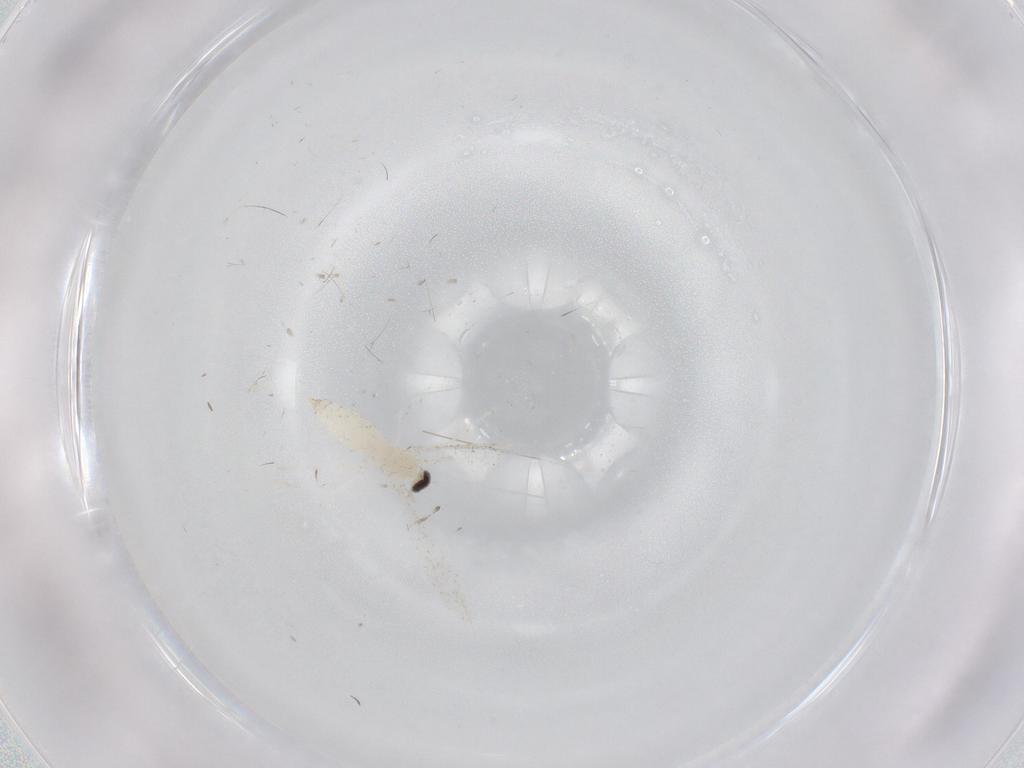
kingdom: Animalia
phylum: Arthropoda
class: Insecta
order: Diptera
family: Cecidomyiidae
